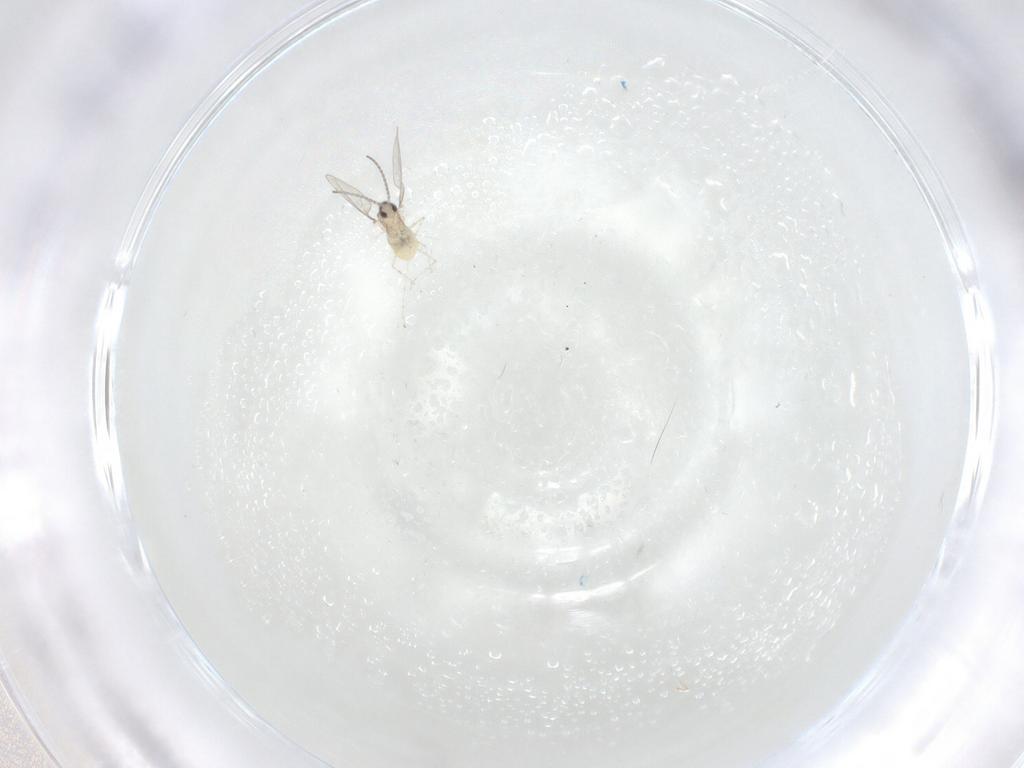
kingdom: Animalia
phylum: Arthropoda
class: Insecta
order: Diptera
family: Cecidomyiidae
